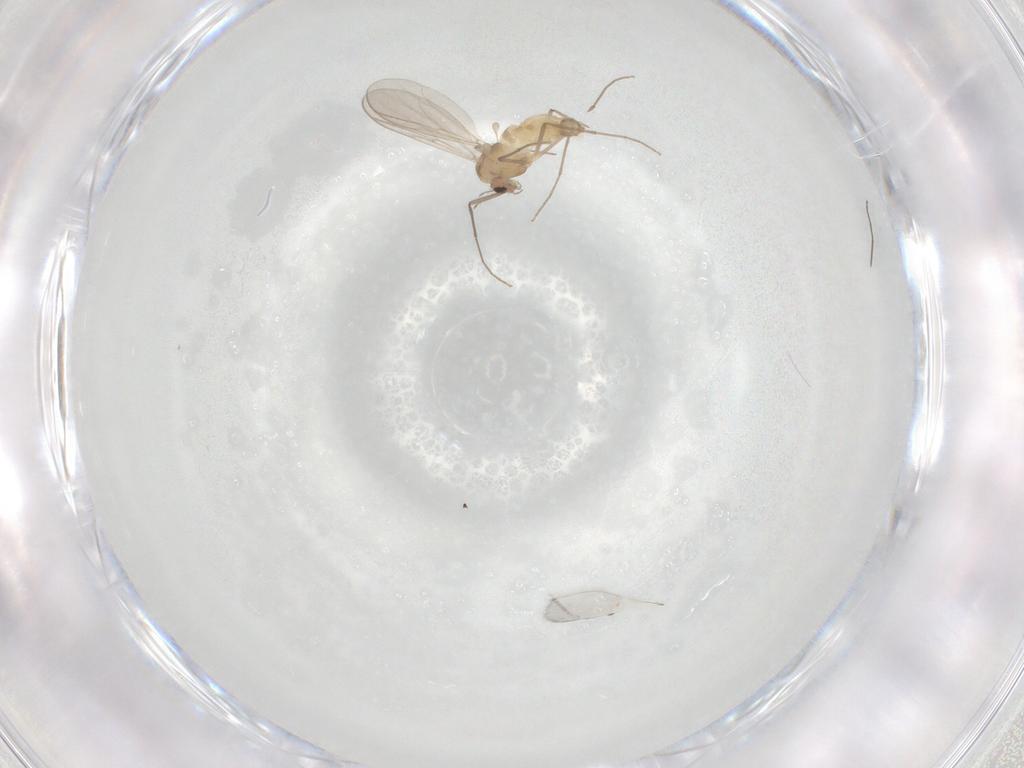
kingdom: Animalia
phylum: Arthropoda
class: Insecta
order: Diptera
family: Chironomidae
